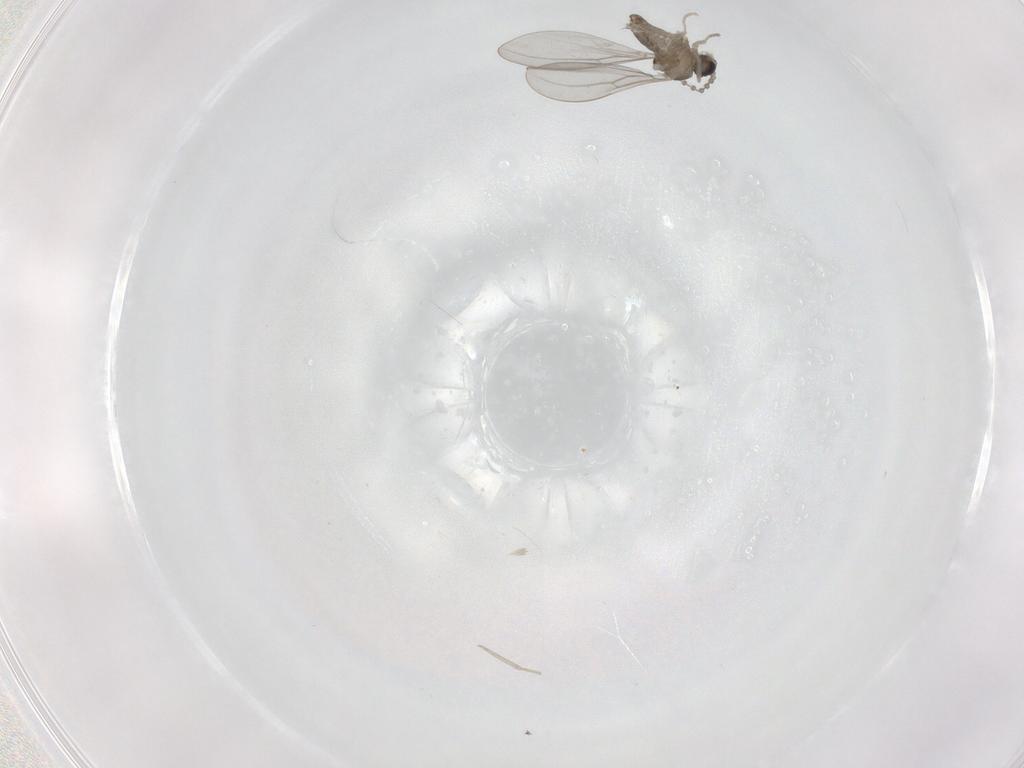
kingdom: Animalia
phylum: Arthropoda
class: Insecta
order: Diptera
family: Cecidomyiidae
